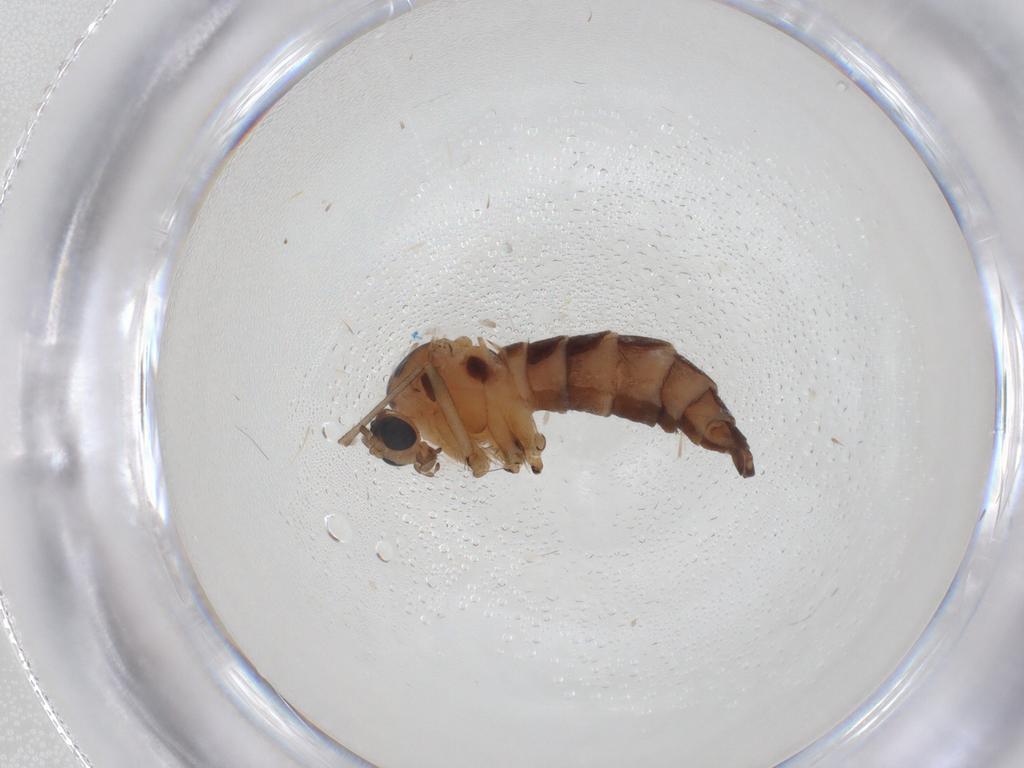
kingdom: Animalia
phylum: Arthropoda
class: Insecta
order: Diptera
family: Sciaridae
